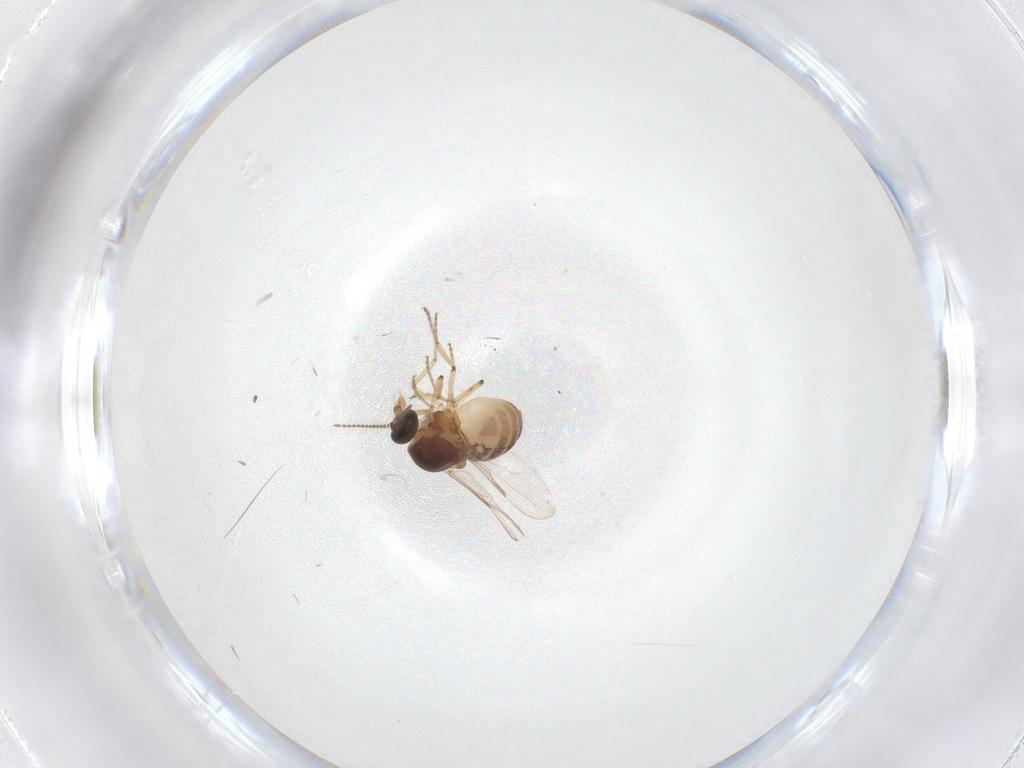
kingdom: Animalia
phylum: Arthropoda
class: Insecta
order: Diptera
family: Ceratopogonidae
